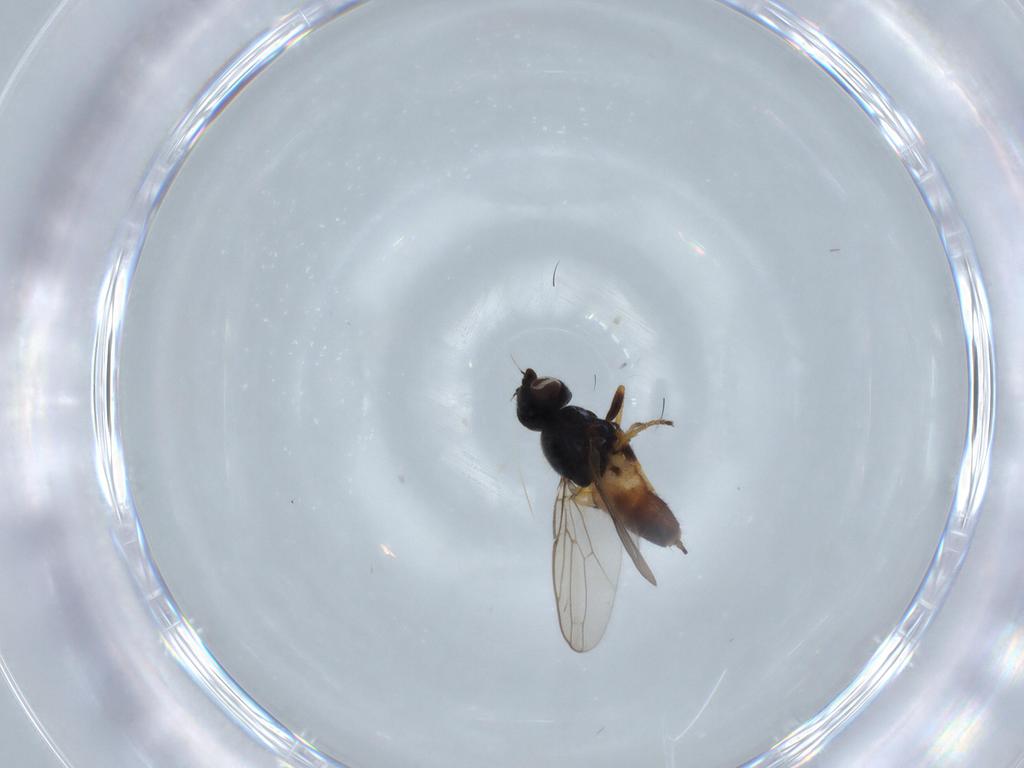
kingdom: Animalia
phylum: Arthropoda
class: Insecta
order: Diptera
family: Chloropidae
